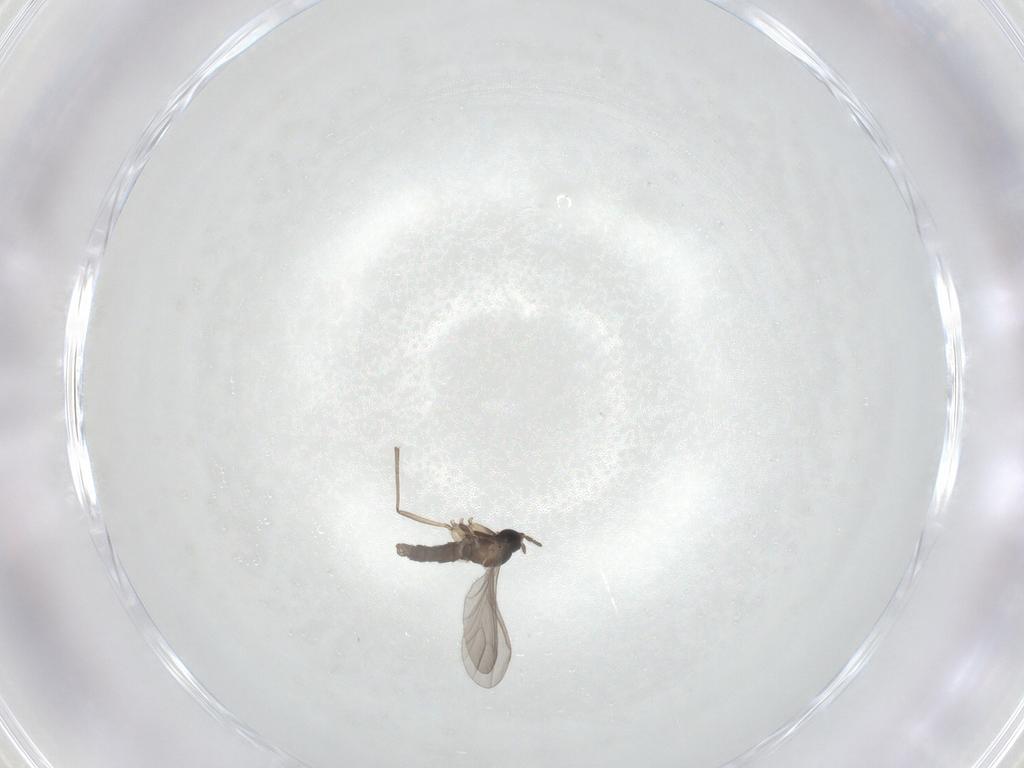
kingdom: Animalia
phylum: Arthropoda
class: Insecta
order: Diptera
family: Sciaridae
